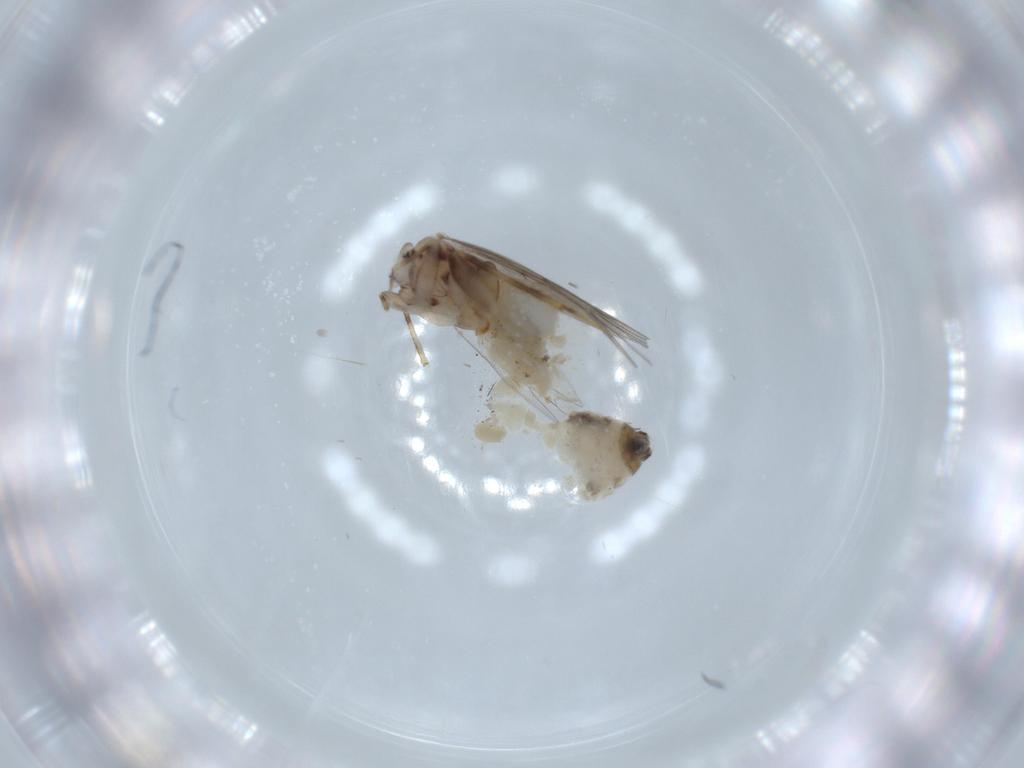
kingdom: Animalia
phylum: Arthropoda
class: Insecta
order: Psocodea
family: Lepidopsocidae
